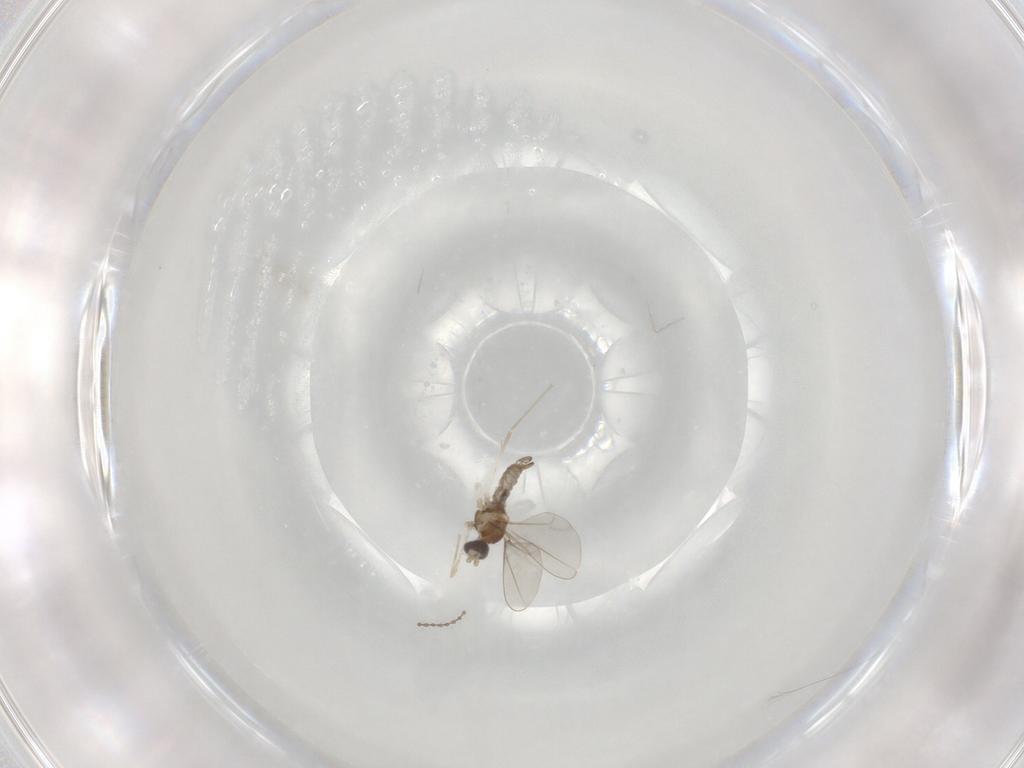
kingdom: Animalia
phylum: Arthropoda
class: Insecta
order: Diptera
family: Cecidomyiidae
